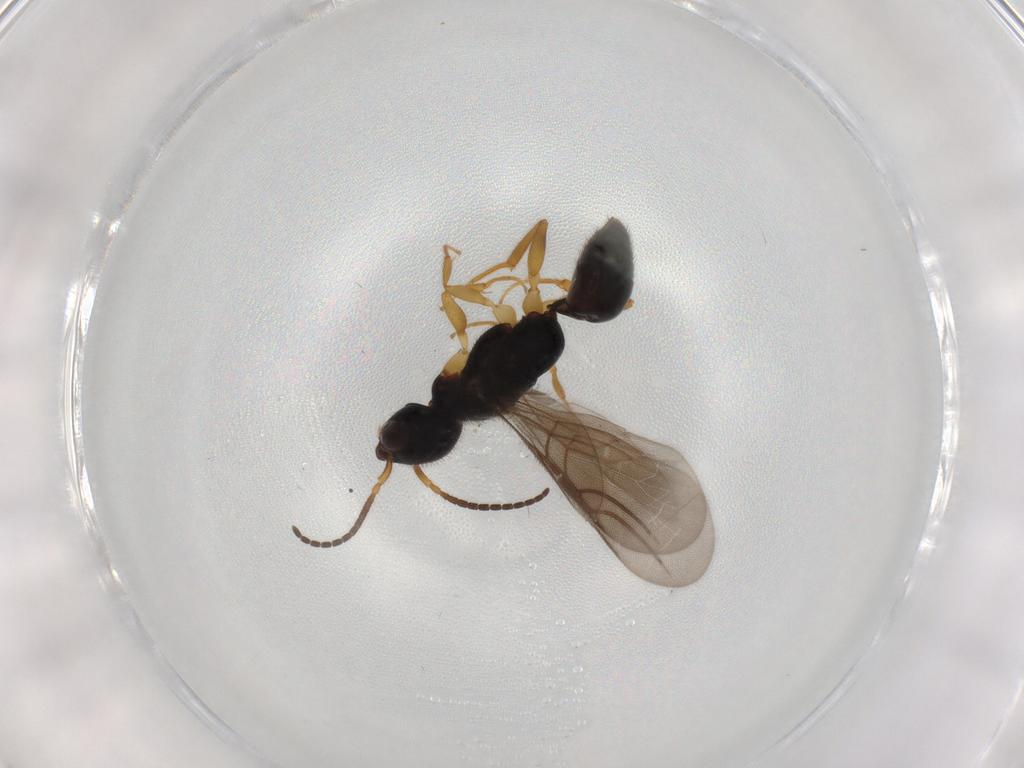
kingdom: Animalia
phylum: Arthropoda
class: Insecta
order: Hymenoptera
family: Bethylidae
